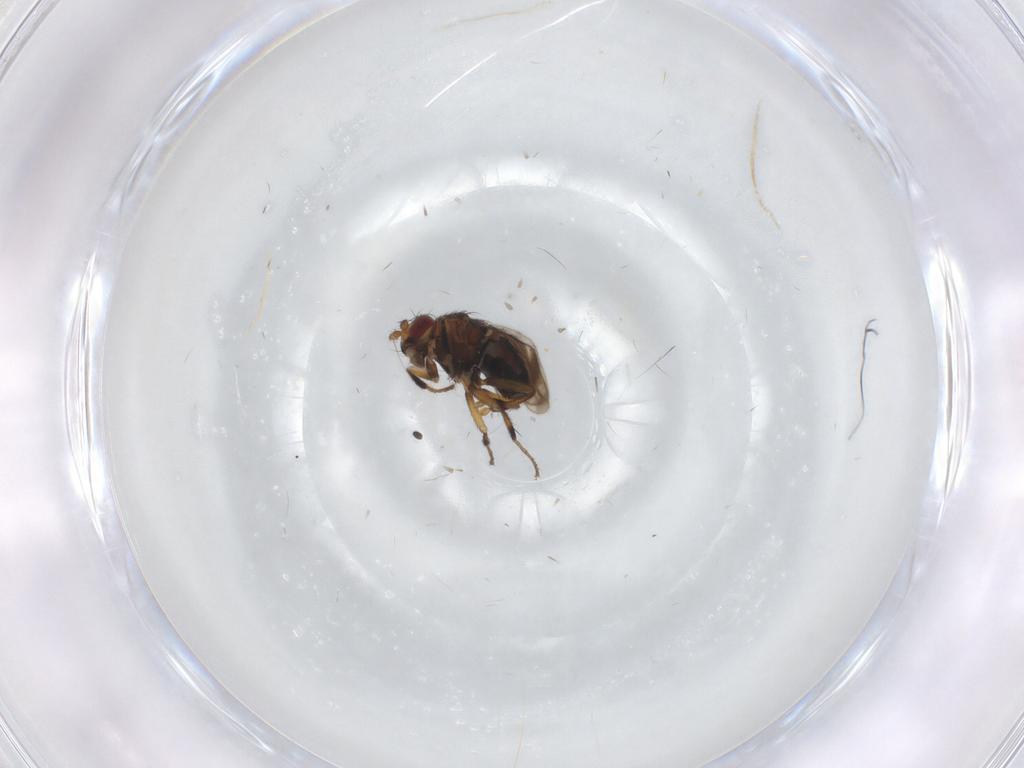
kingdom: Animalia
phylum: Arthropoda
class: Insecta
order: Diptera
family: Sphaeroceridae
